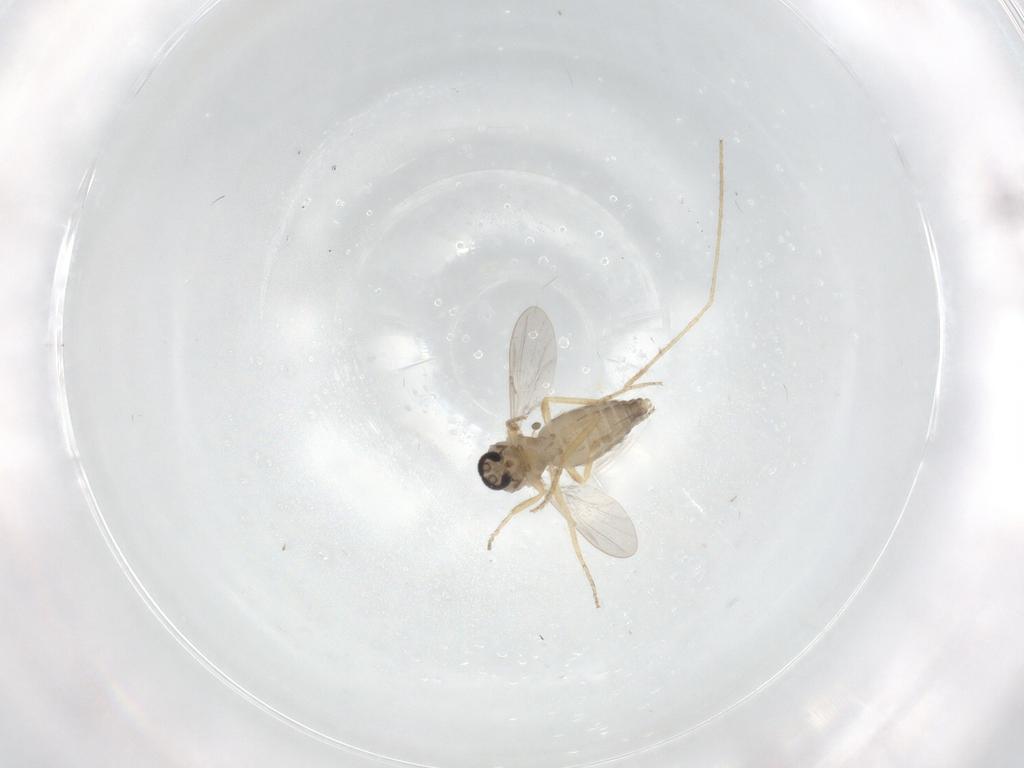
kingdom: Animalia
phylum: Arthropoda
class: Insecta
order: Diptera
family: Ceratopogonidae
